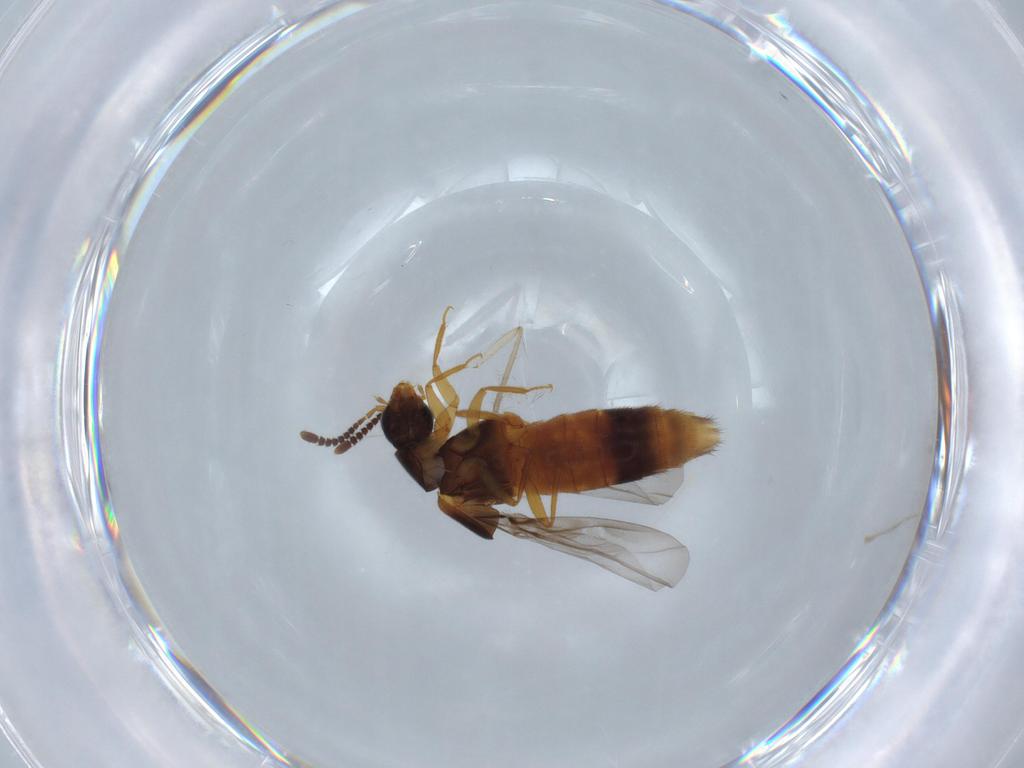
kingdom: Animalia
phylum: Arthropoda
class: Insecta
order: Coleoptera
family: Staphylinidae
